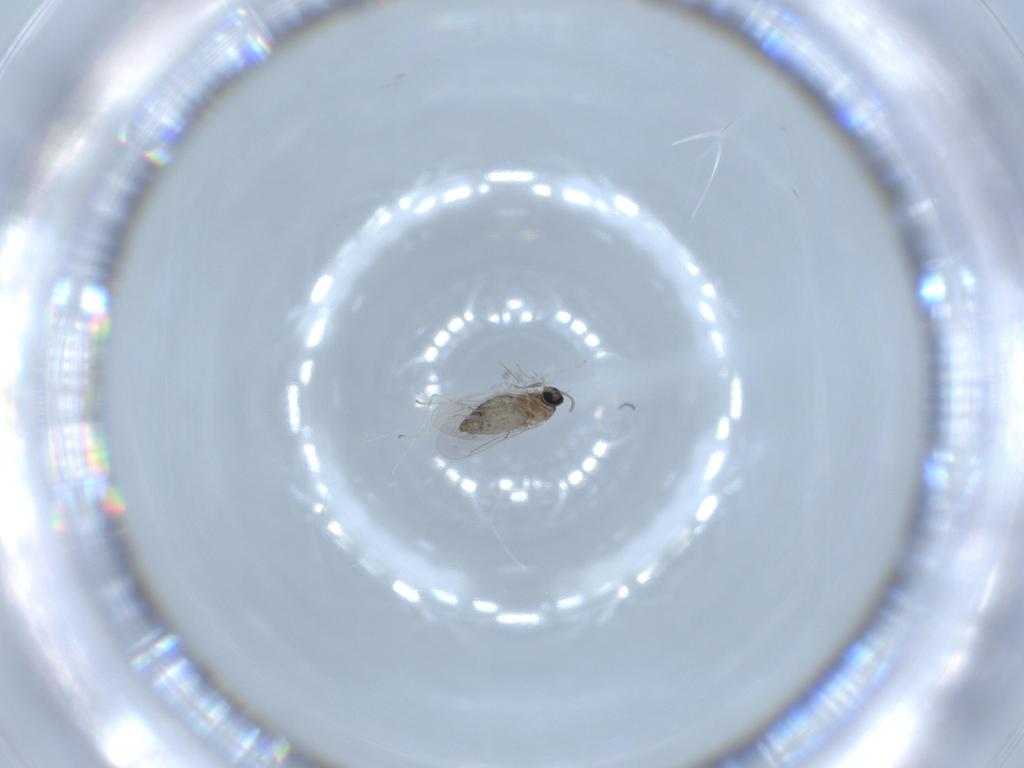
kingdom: Animalia
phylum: Arthropoda
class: Insecta
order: Diptera
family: Cecidomyiidae
